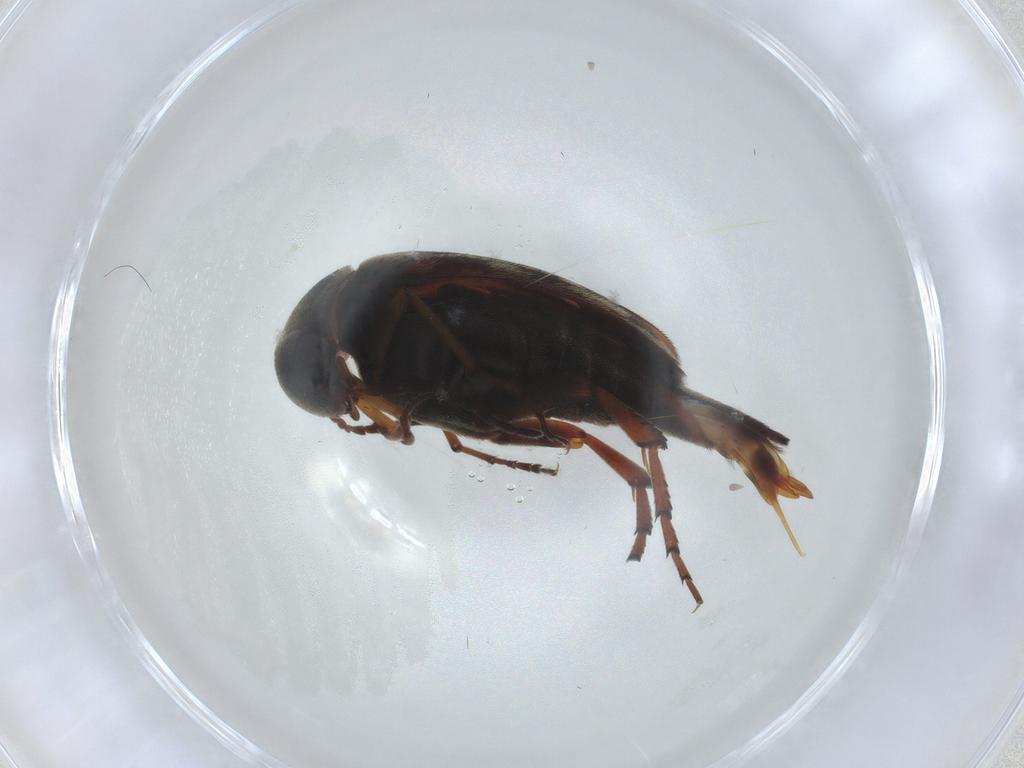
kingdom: Animalia
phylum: Arthropoda
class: Insecta
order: Coleoptera
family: Mordellidae
